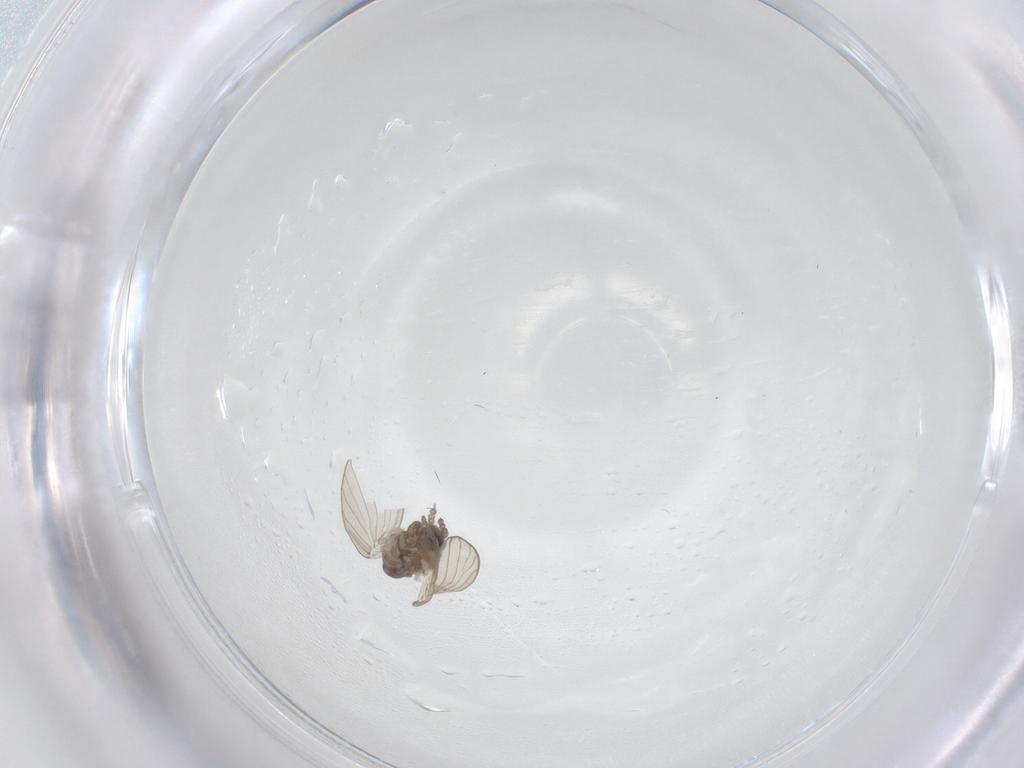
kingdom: Animalia
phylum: Arthropoda
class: Insecta
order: Diptera
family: Psychodidae
